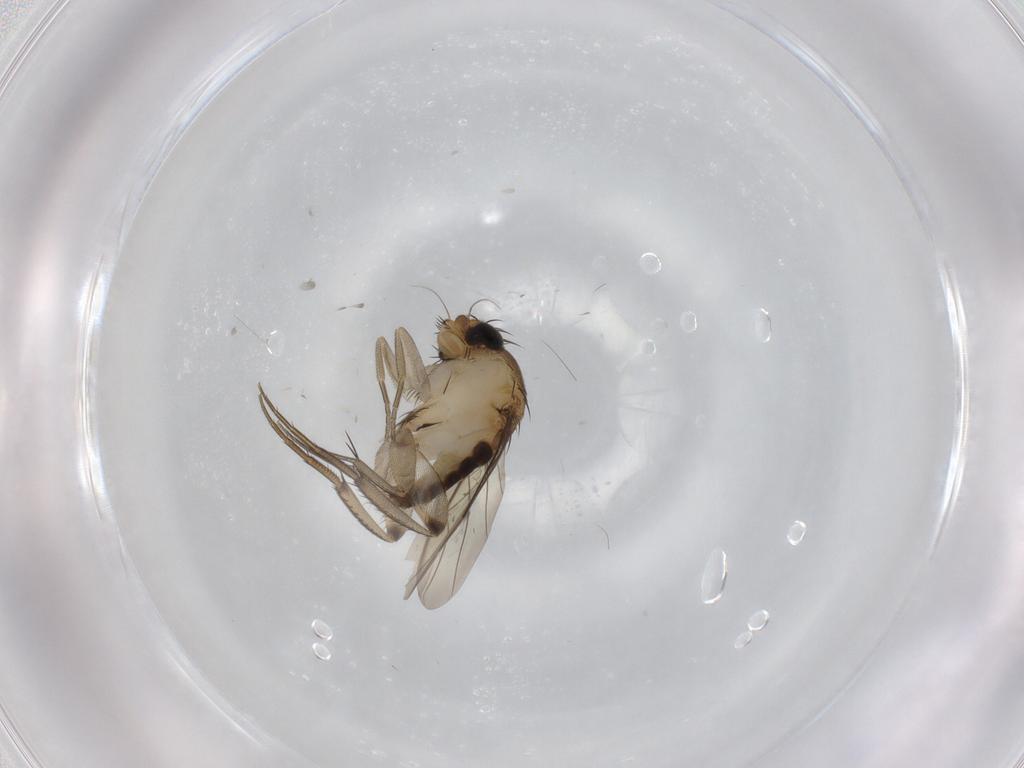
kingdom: Animalia
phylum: Arthropoda
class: Insecta
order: Diptera
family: Phoridae
